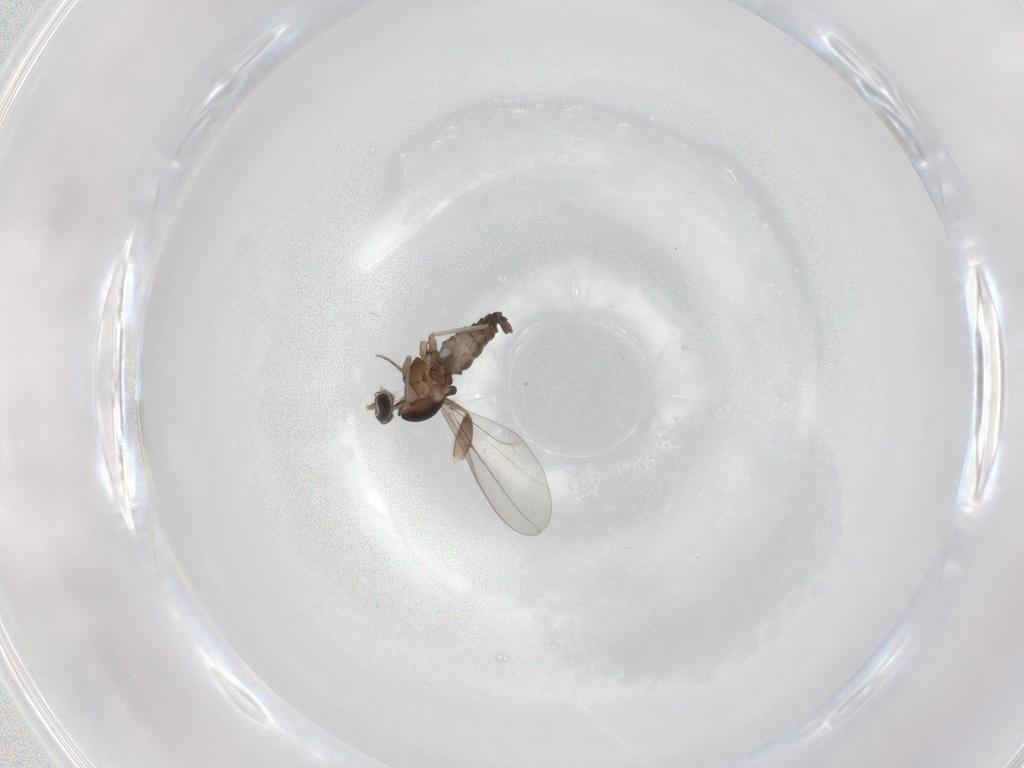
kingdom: Animalia
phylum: Arthropoda
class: Insecta
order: Diptera
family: Cecidomyiidae
